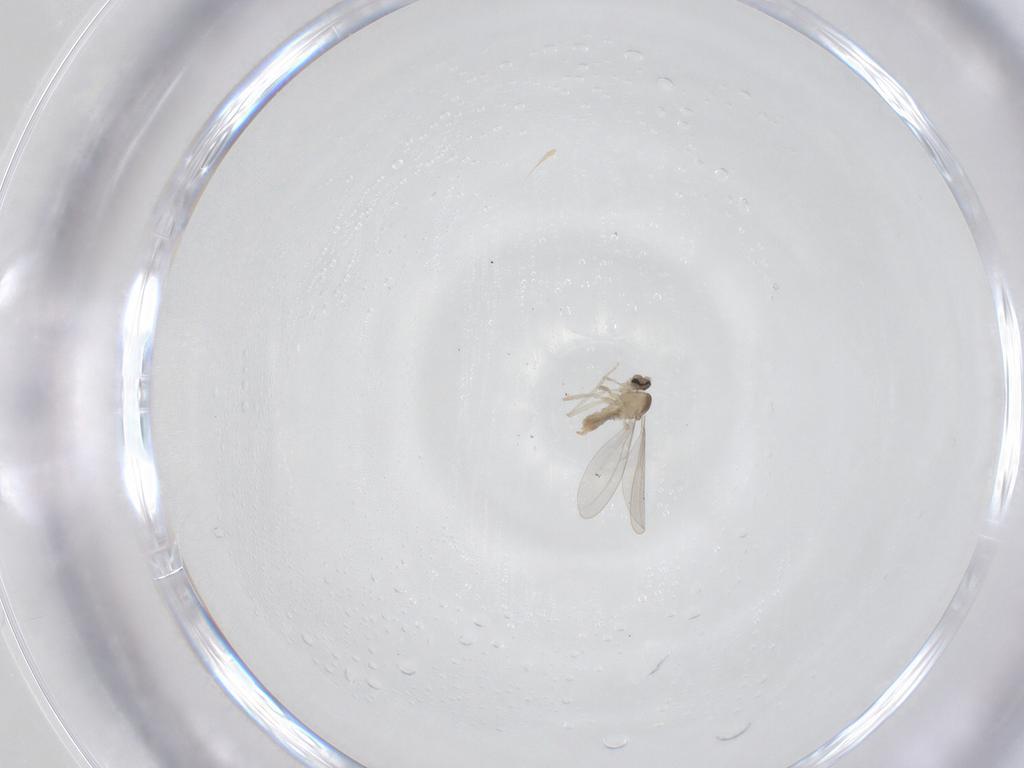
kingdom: Animalia
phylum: Arthropoda
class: Insecta
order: Diptera
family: Cecidomyiidae
